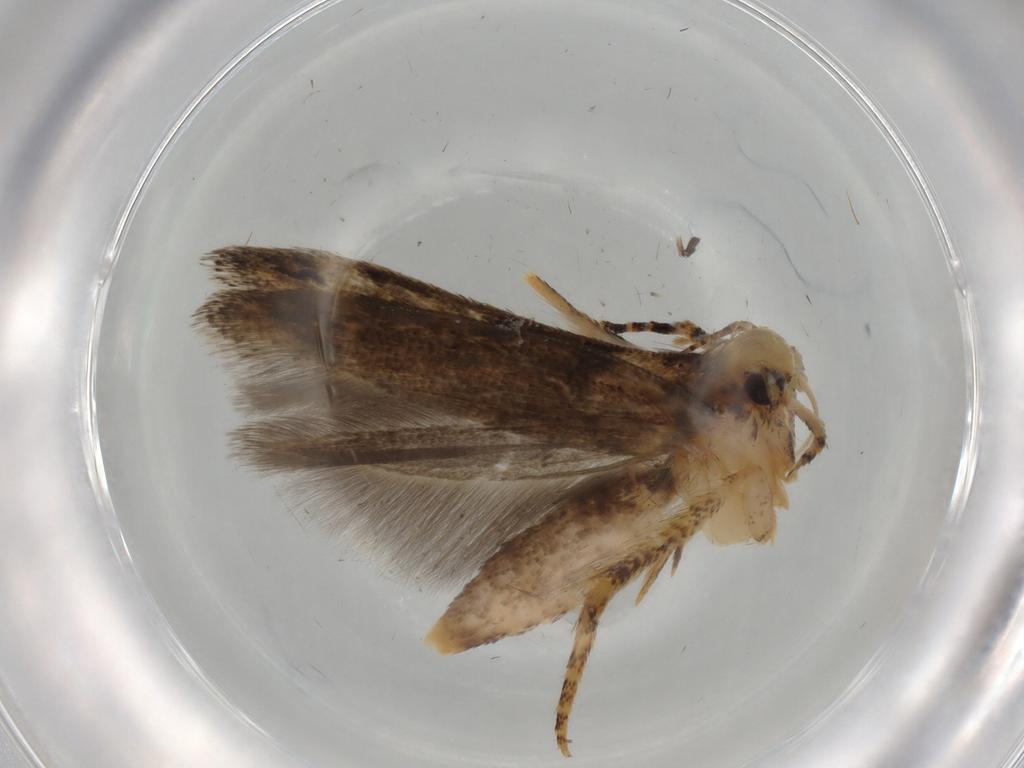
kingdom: Animalia
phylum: Arthropoda
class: Insecta
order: Lepidoptera
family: Gelechiidae
